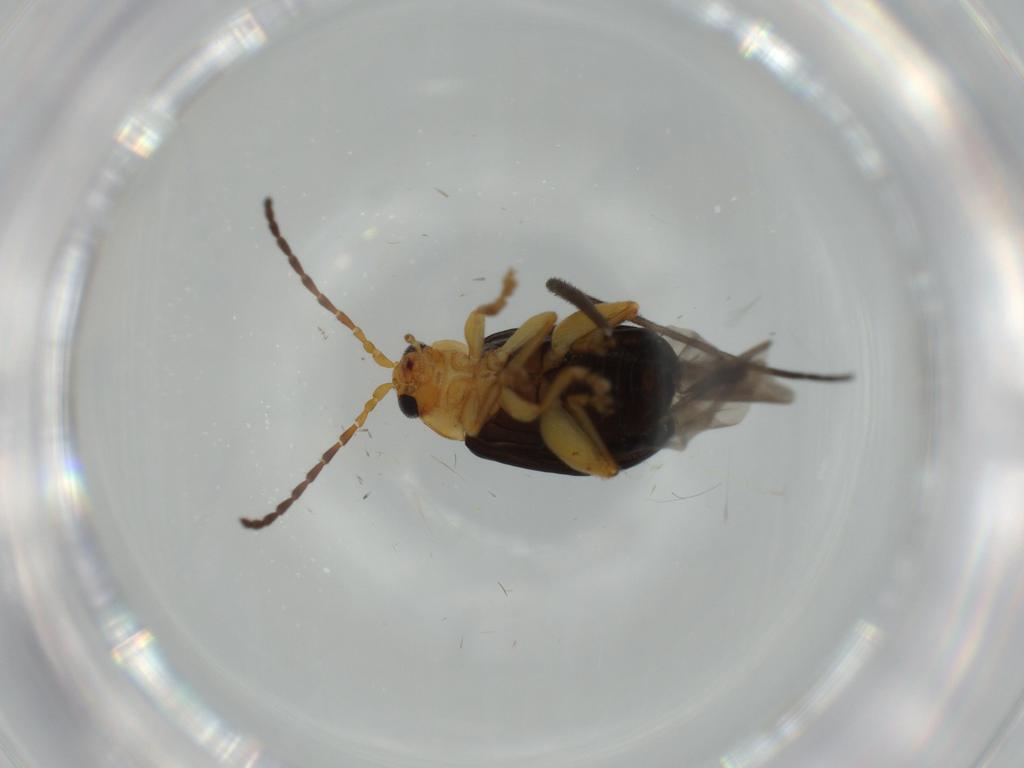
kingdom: Animalia
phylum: Arthropoda
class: Insecta
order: Coleoptera
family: Chrysomelidae
